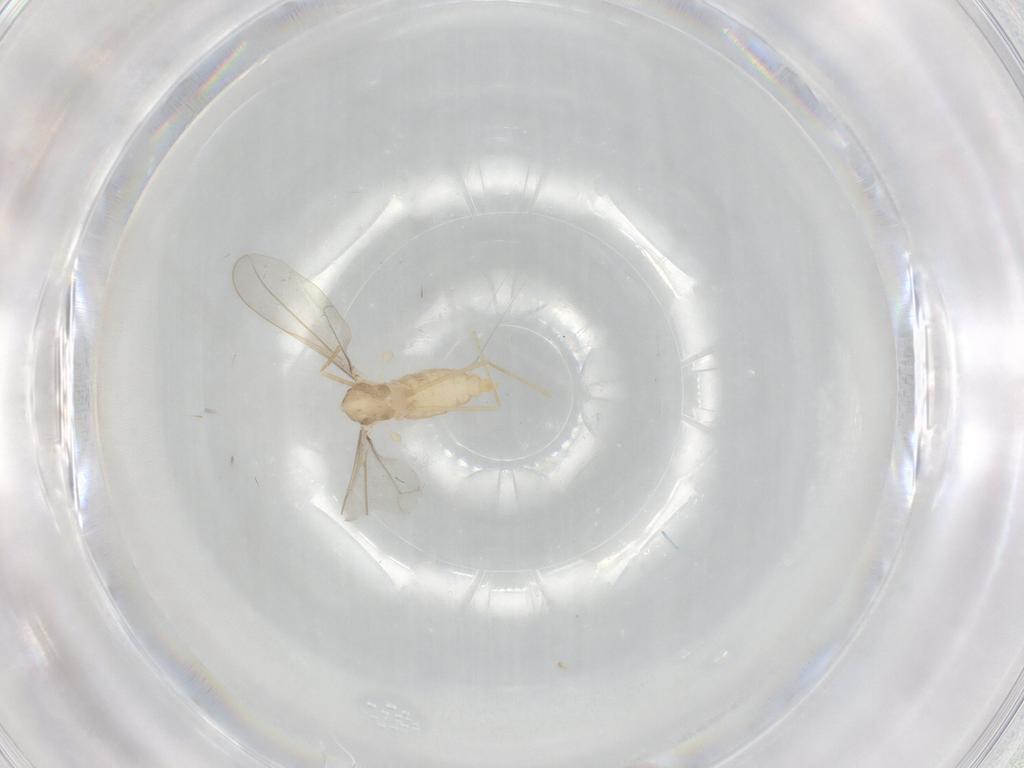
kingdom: Animalia
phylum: Arthropoda
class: Insecta
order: Diptera
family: Cecidomyiidae
